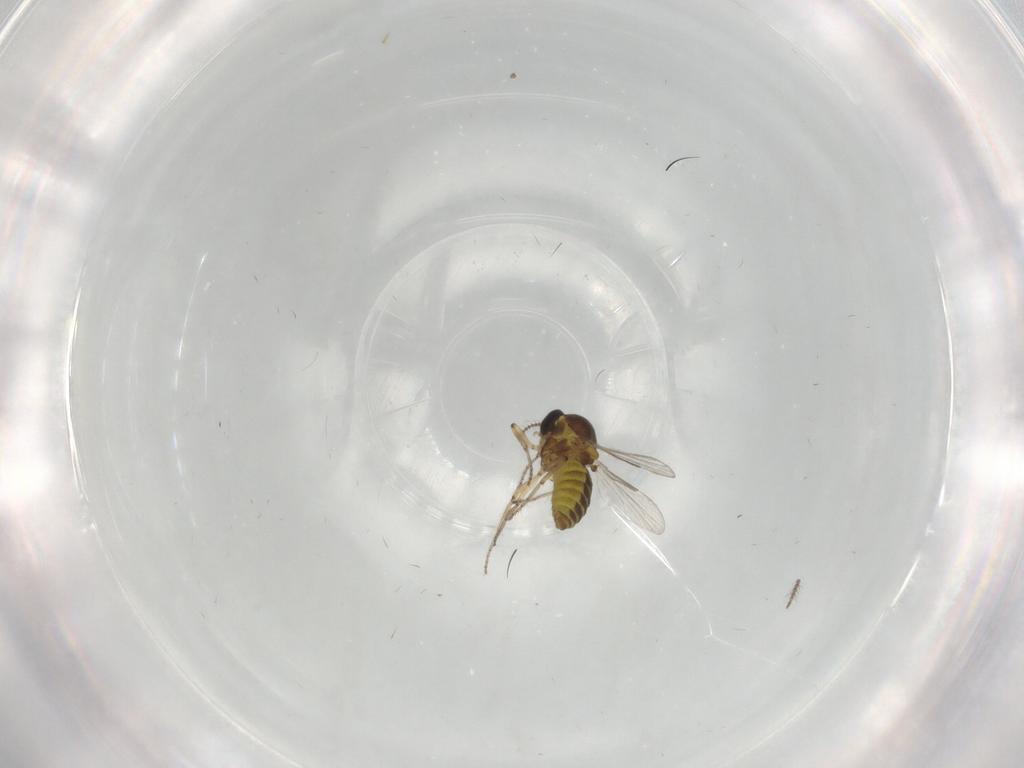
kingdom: Animalia
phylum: Arthropoda
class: Insecta
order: Diptera
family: Ceratopogonidae
